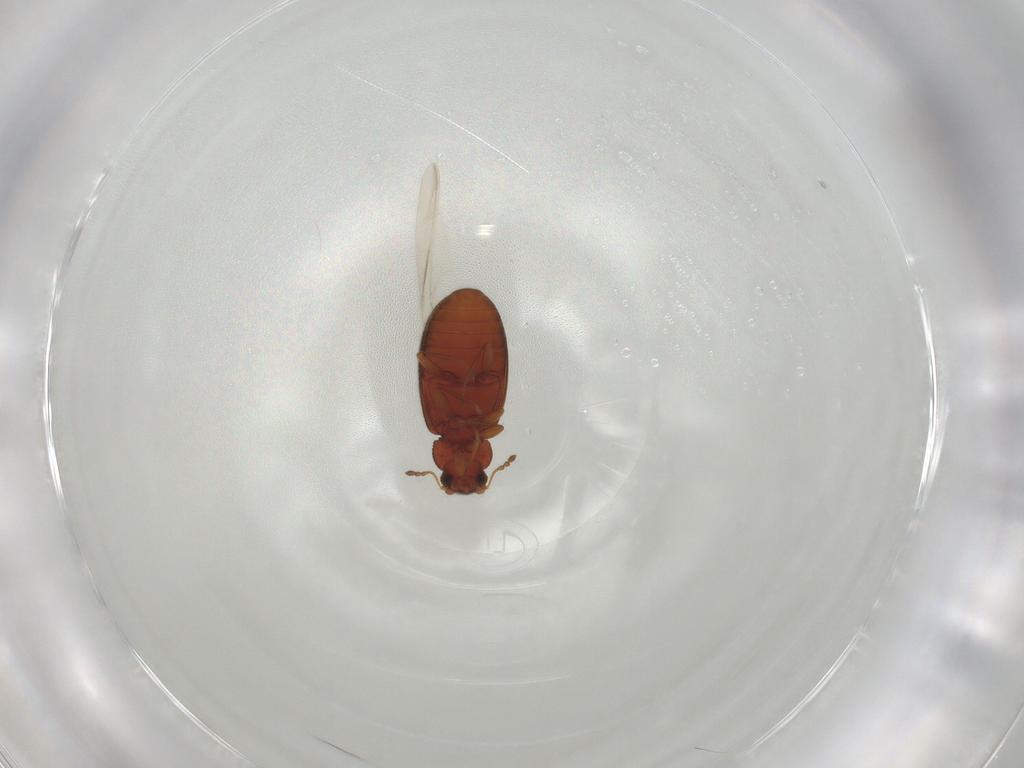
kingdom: Animalia
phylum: Arthropoda
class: Insecta
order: Coleoptera
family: Latridiidae
